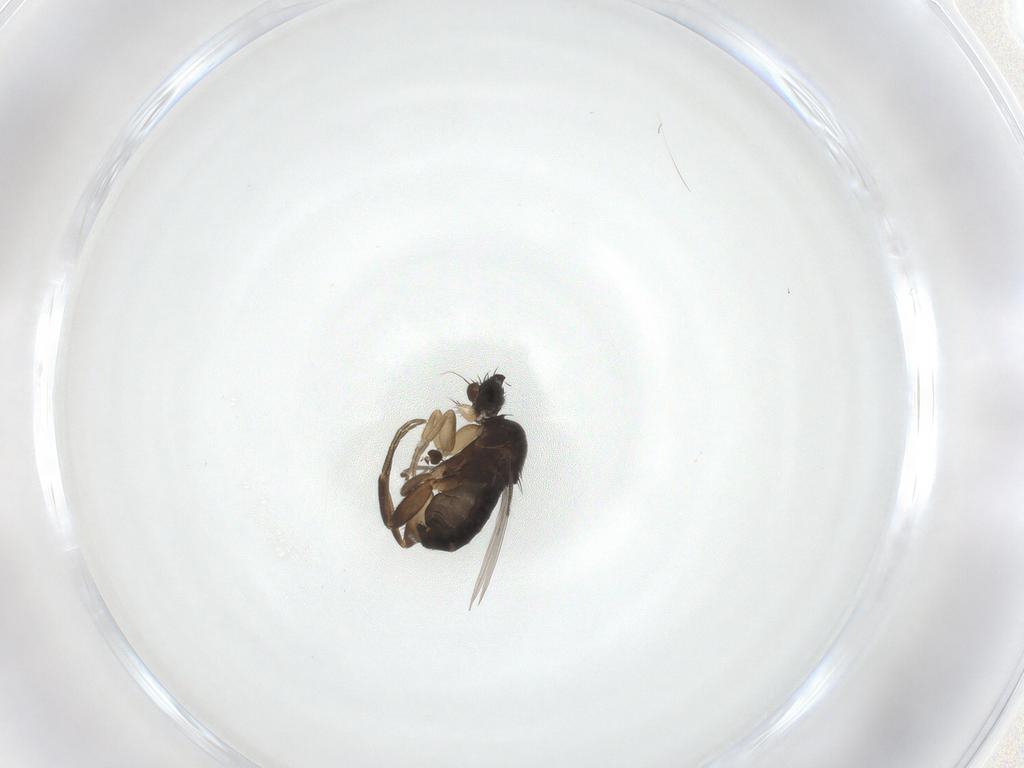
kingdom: Animalia
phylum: Arthropoda
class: Insecta
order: Diptera
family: Phoridae
